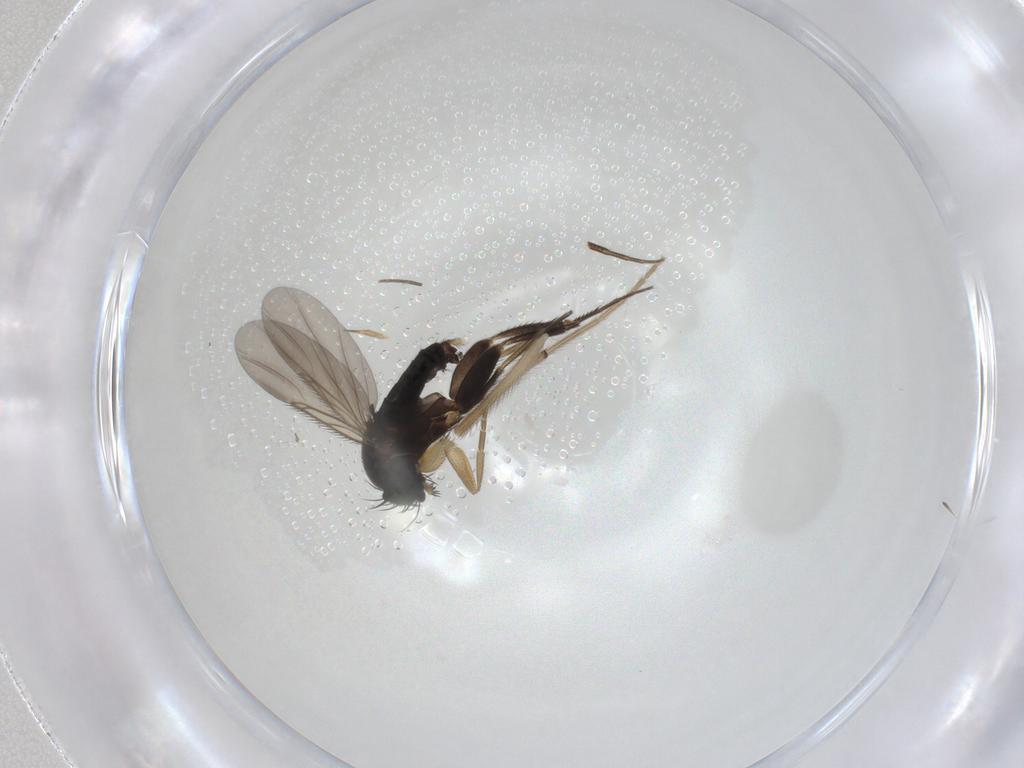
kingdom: Animalia
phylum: Arthropoda
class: Insecta
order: Diptera
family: Phoridae
